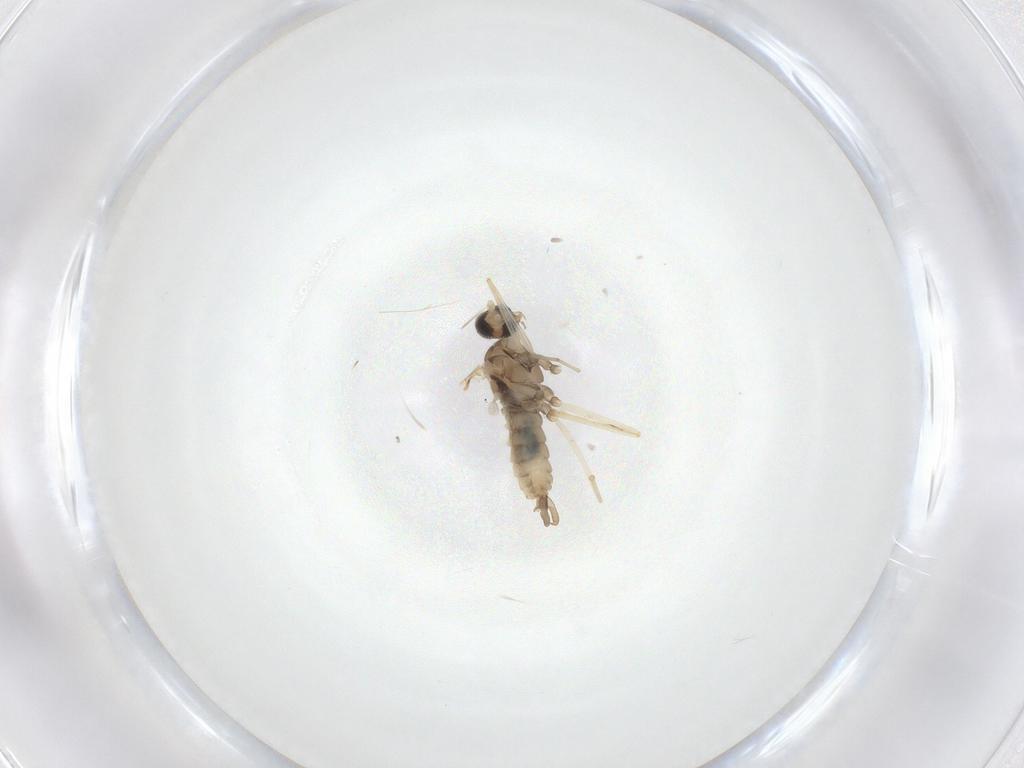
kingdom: Animalia
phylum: Arthropoda
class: Insecta
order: Diptera
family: Cecidomyiidae
